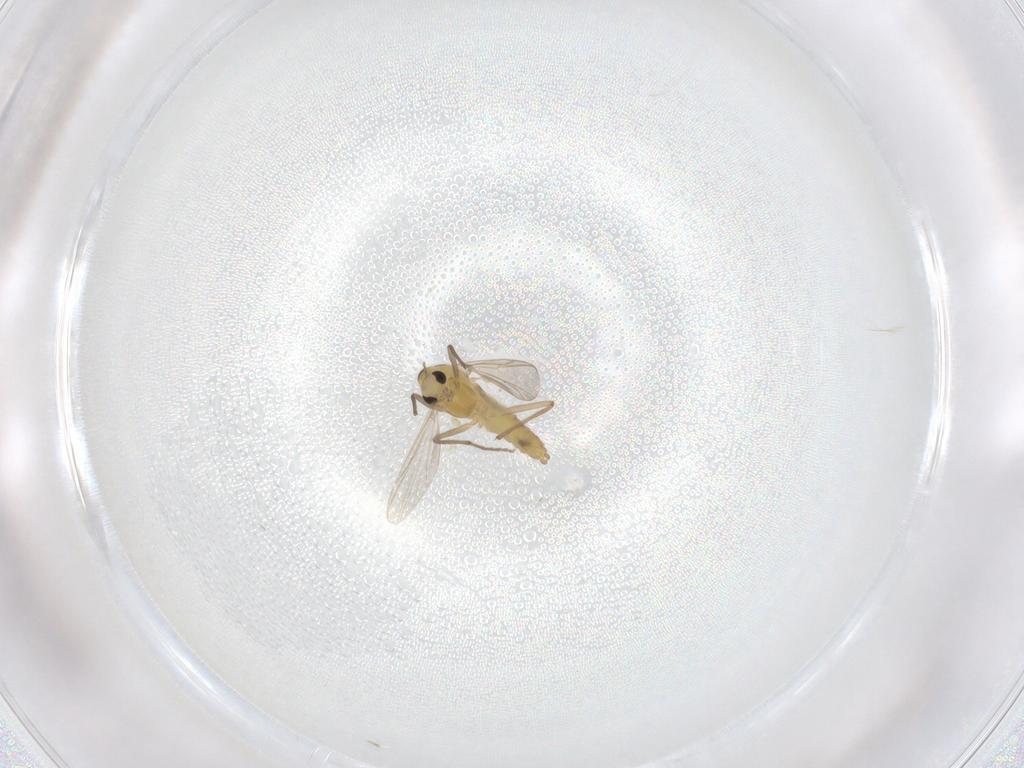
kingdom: Animalia
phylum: Arthropoda
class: Insecta
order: Diptera
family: Chironomidae
